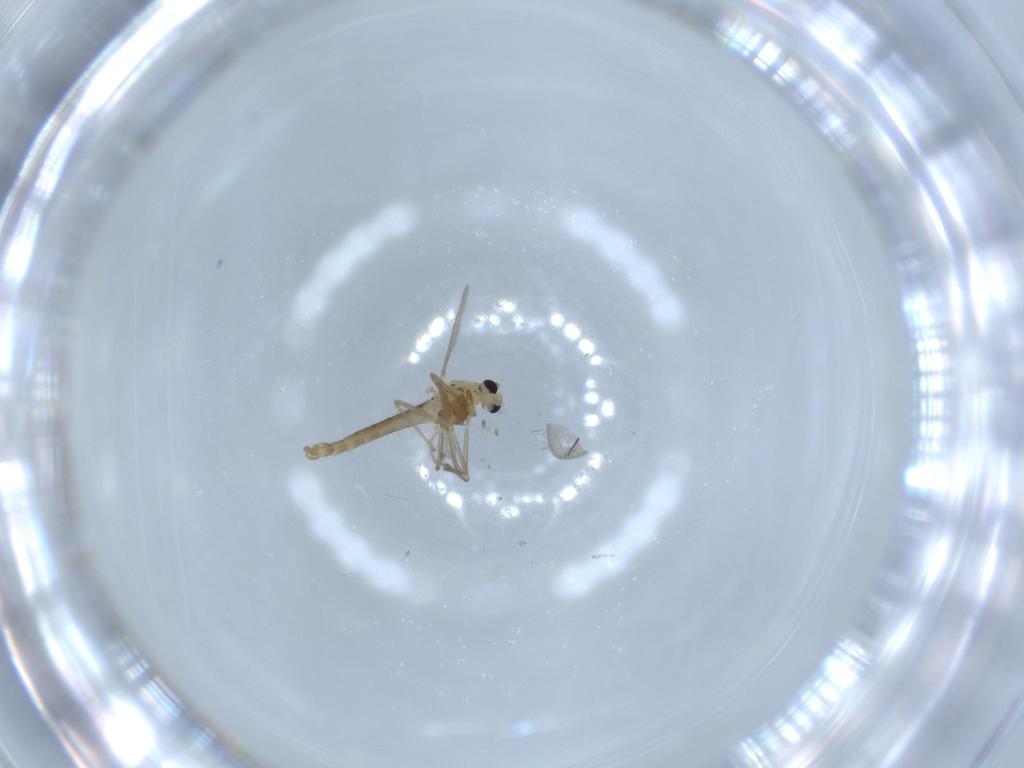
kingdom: Animalia
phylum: Arthropoda
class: Insecta
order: Diptera
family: Chironomidae
